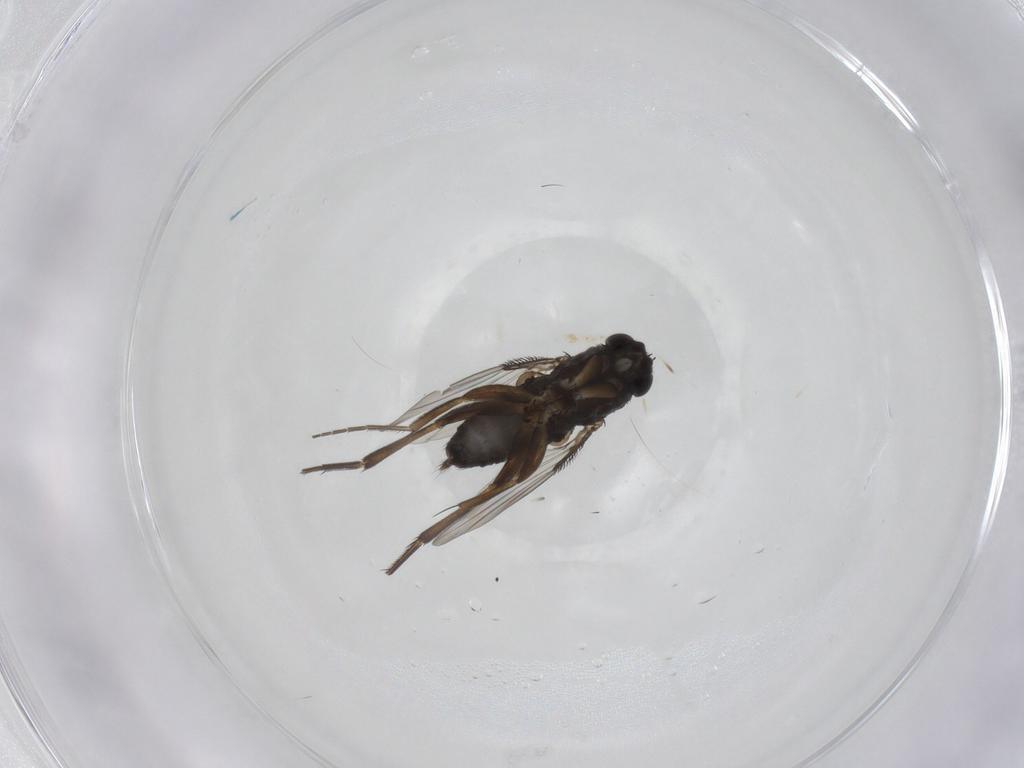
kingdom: Animalia
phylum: Arthropoda
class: Insecta
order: Diptera
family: Phoridae
